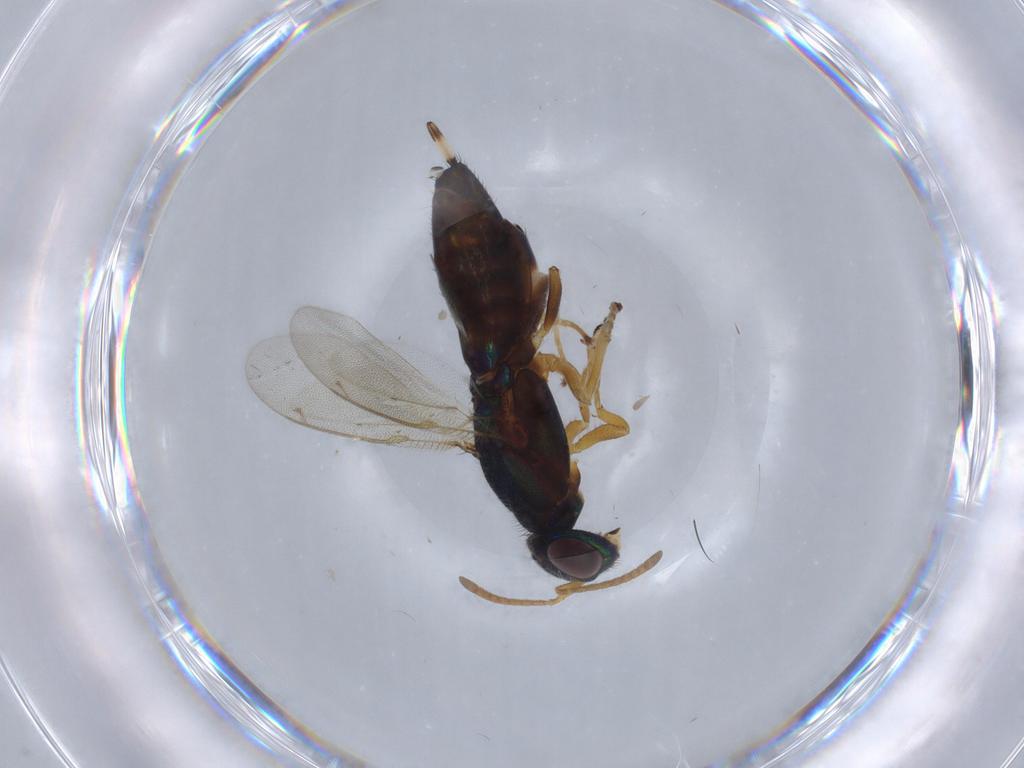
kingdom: Animalia
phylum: Arthropoda
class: Insecta
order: Hymenoptera
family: Eupelmidae
